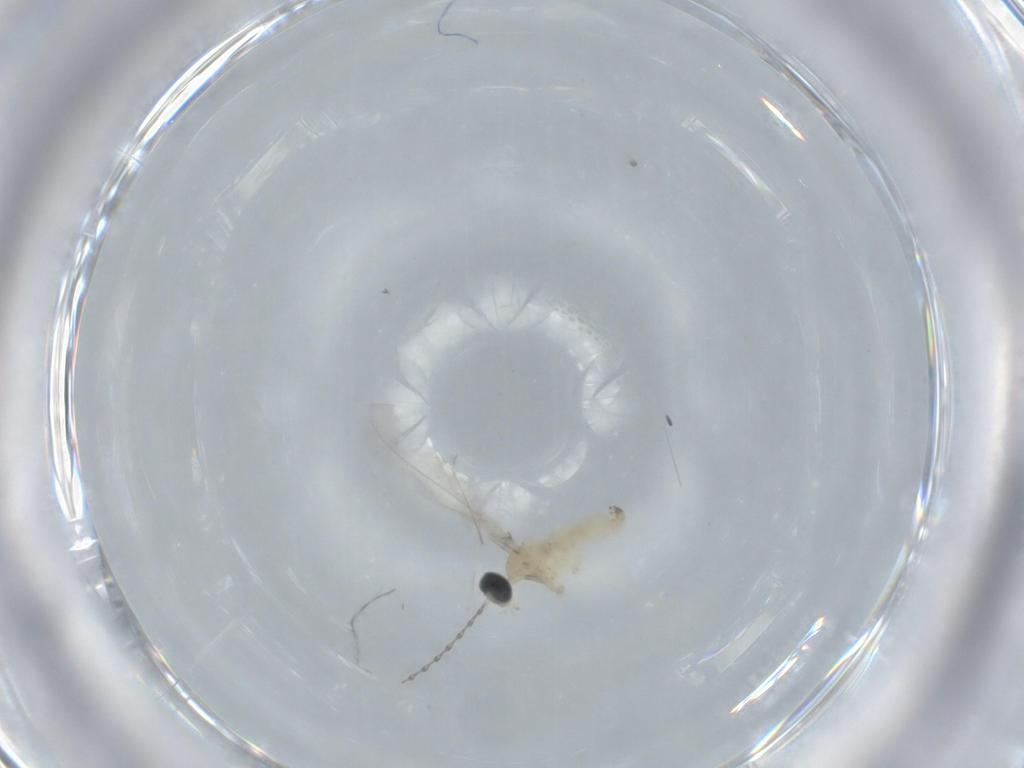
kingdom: Animalia
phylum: Arthropoda
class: Insecta
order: Diptera
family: Cecidomyiidae
